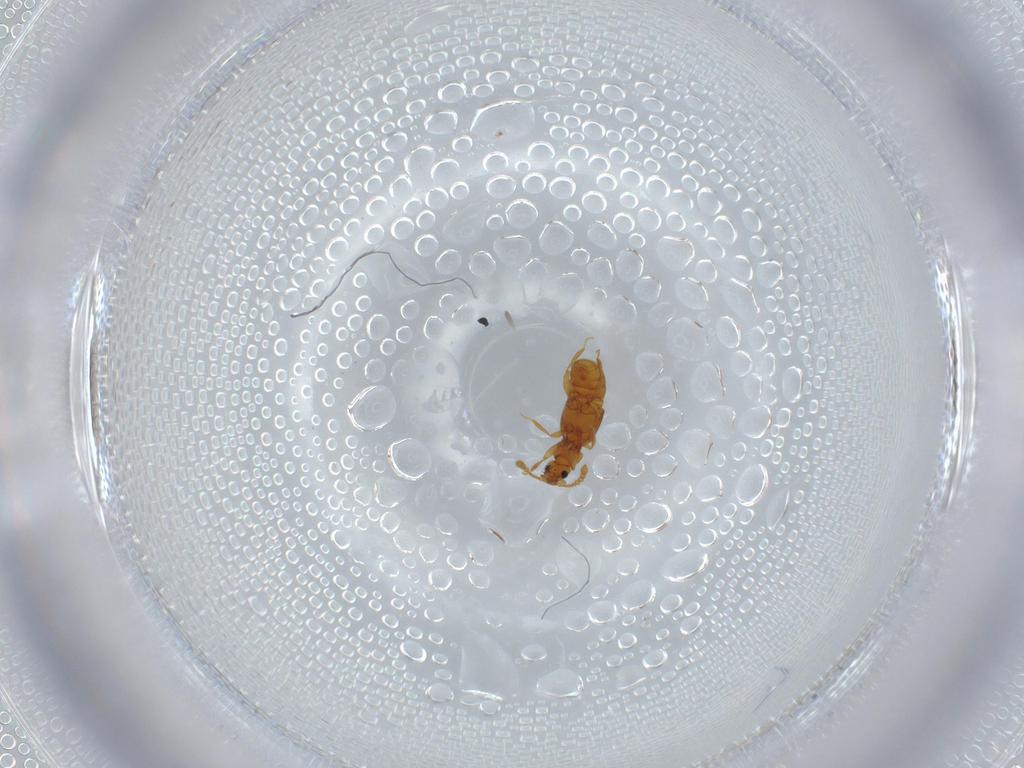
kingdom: Animalia
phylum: Arthropoda
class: Insecta
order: Coleoptera
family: Staphylinidae
